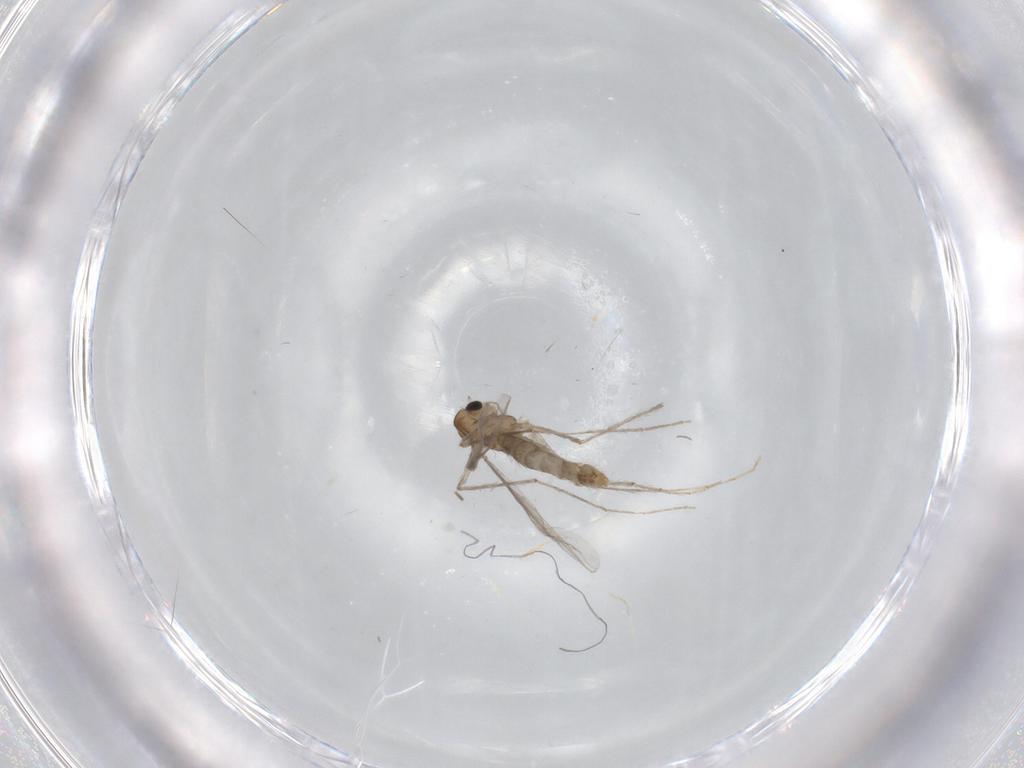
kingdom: Animalia
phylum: Arthropoda
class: Insecta
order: Diptera
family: Chironomidae
